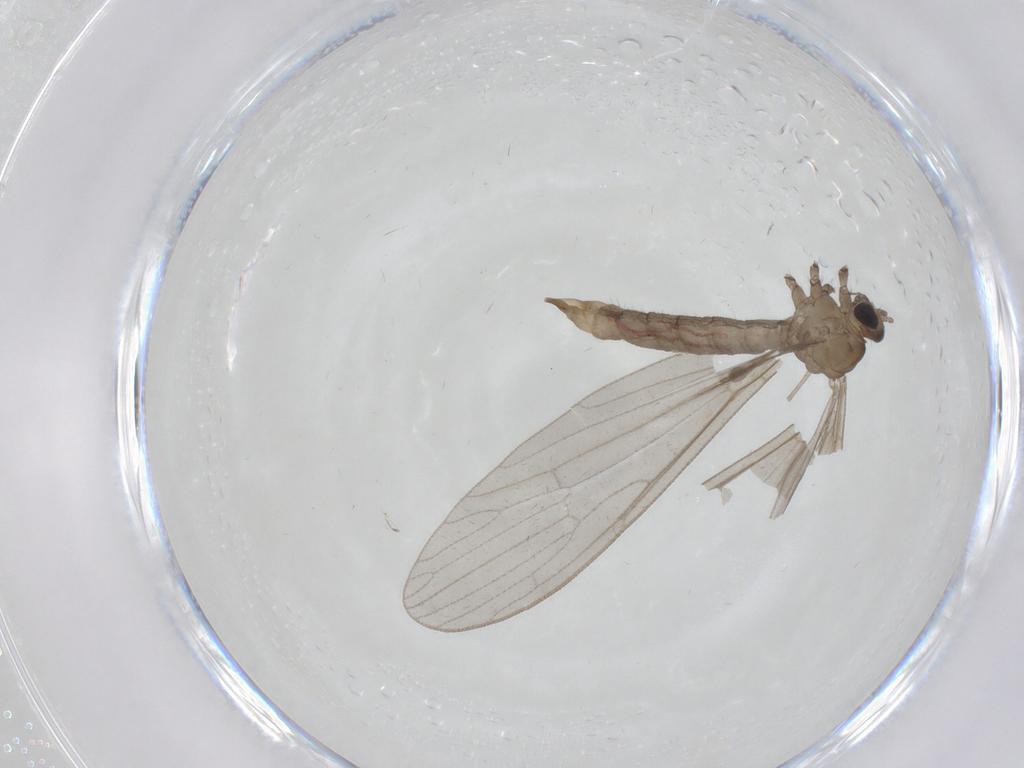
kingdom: Animalia
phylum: Arthropoda
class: Insecta
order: Diptera
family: Limoniidae
